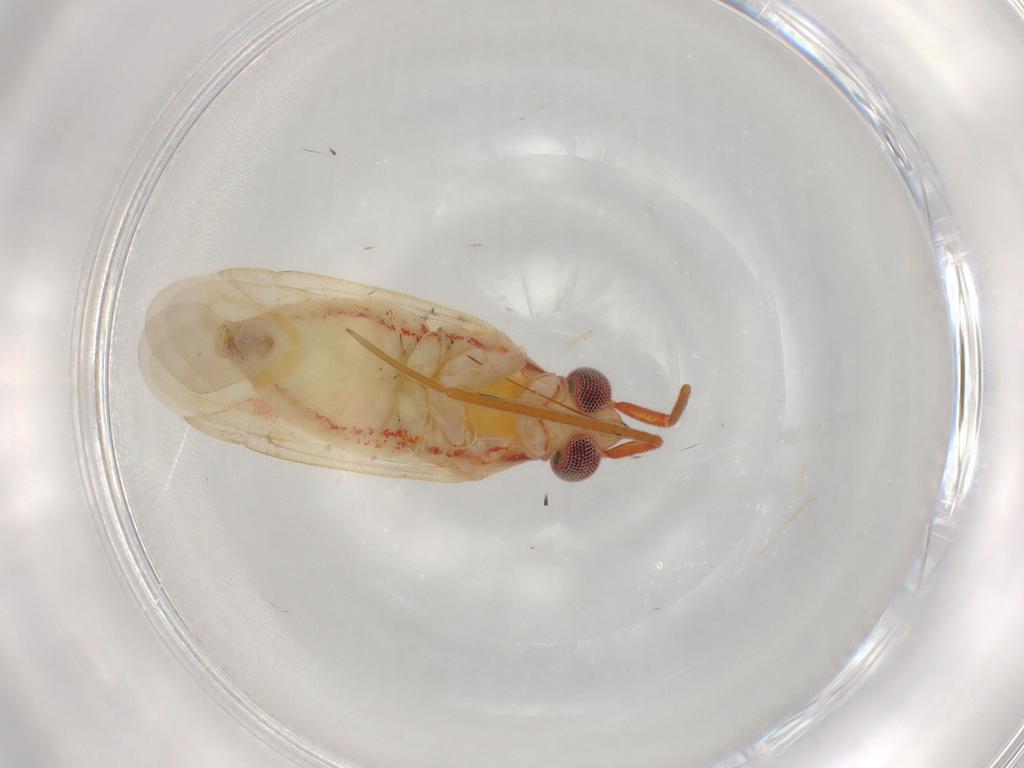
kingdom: Animalia
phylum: Arthropoda
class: Insecta
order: Hemiptera
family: Miridae
